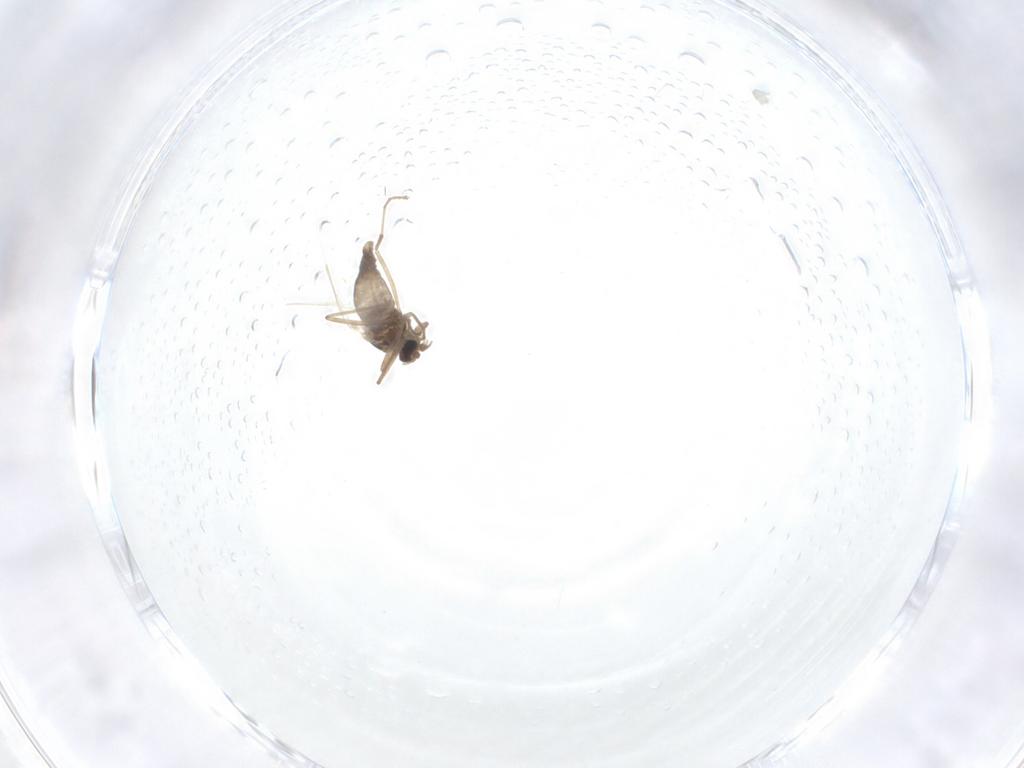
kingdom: Animalia
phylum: Arthropoda
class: Insecta
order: Diptera
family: Cecidomyiidae
